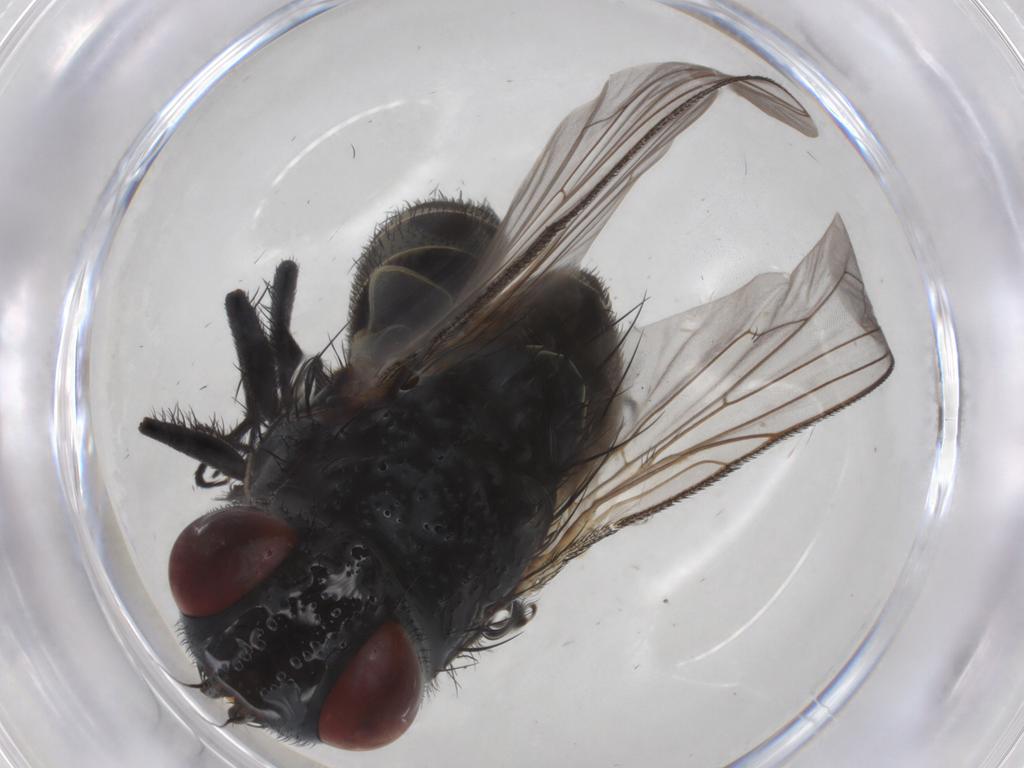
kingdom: Animalia
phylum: Arthropoda
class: Insecta
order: Diptera
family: Sarcophagidae
